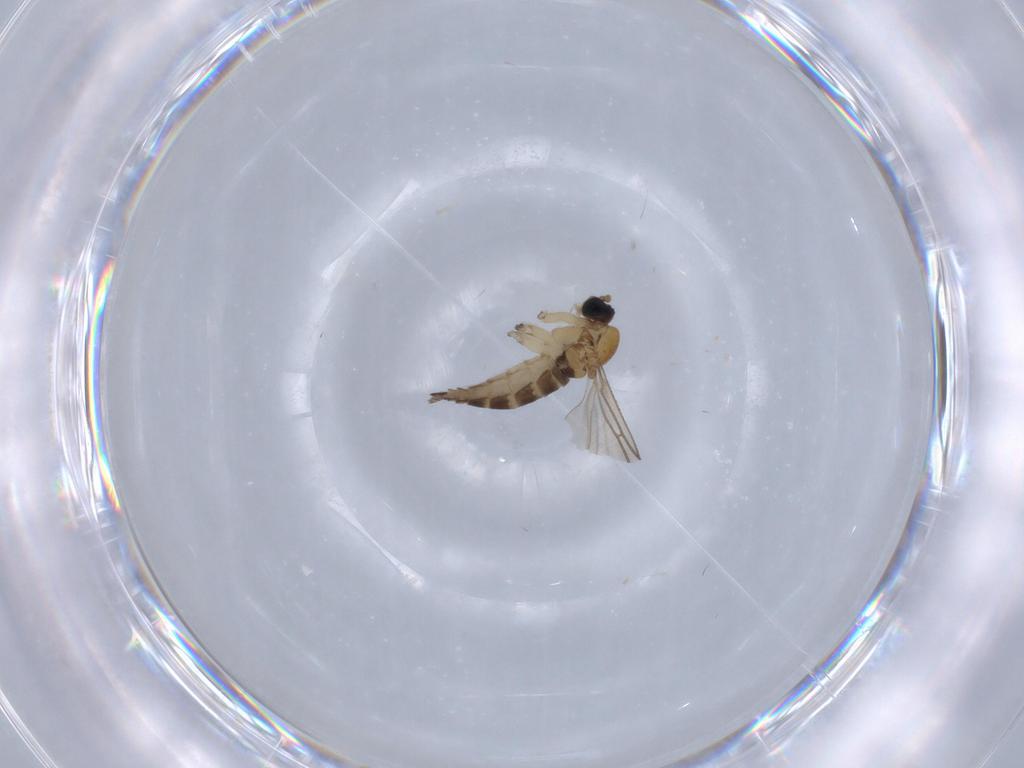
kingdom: Animalia
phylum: Arthropoda
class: Insecta
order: Diptera
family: Sciaridae
